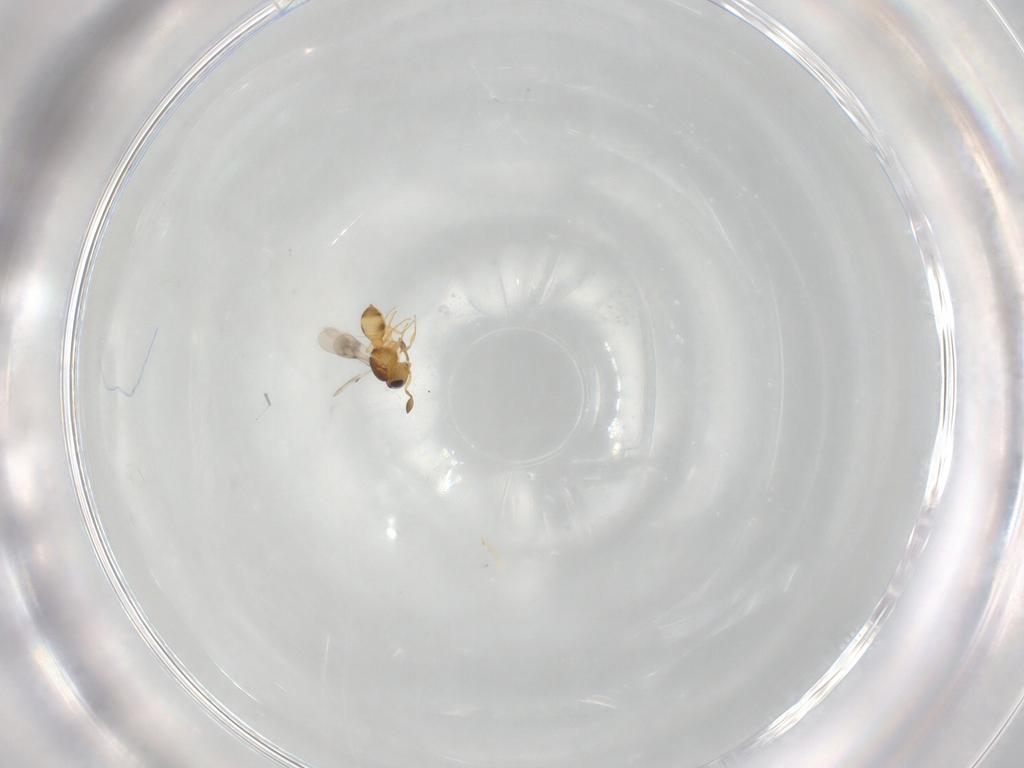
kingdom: Animalia
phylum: Arthropoda
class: Insecta
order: Hymenoptera
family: Scelionidae
